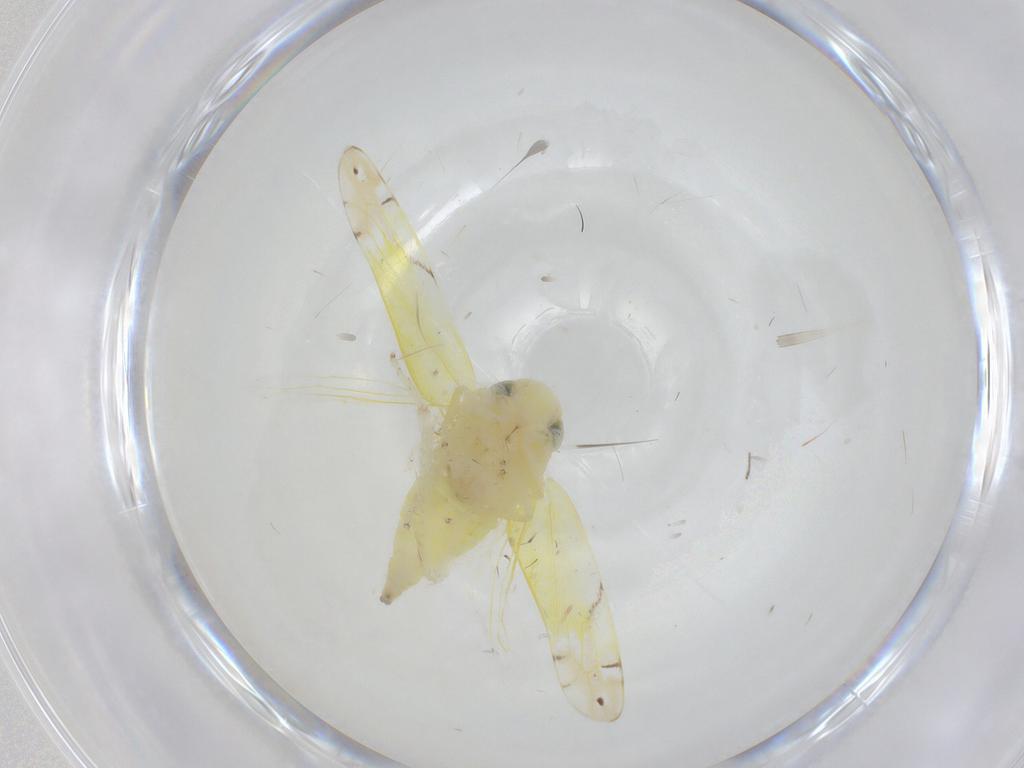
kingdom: Animalia
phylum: Arthropoda
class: Insecta
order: Hemiptera
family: Cicadellidae
